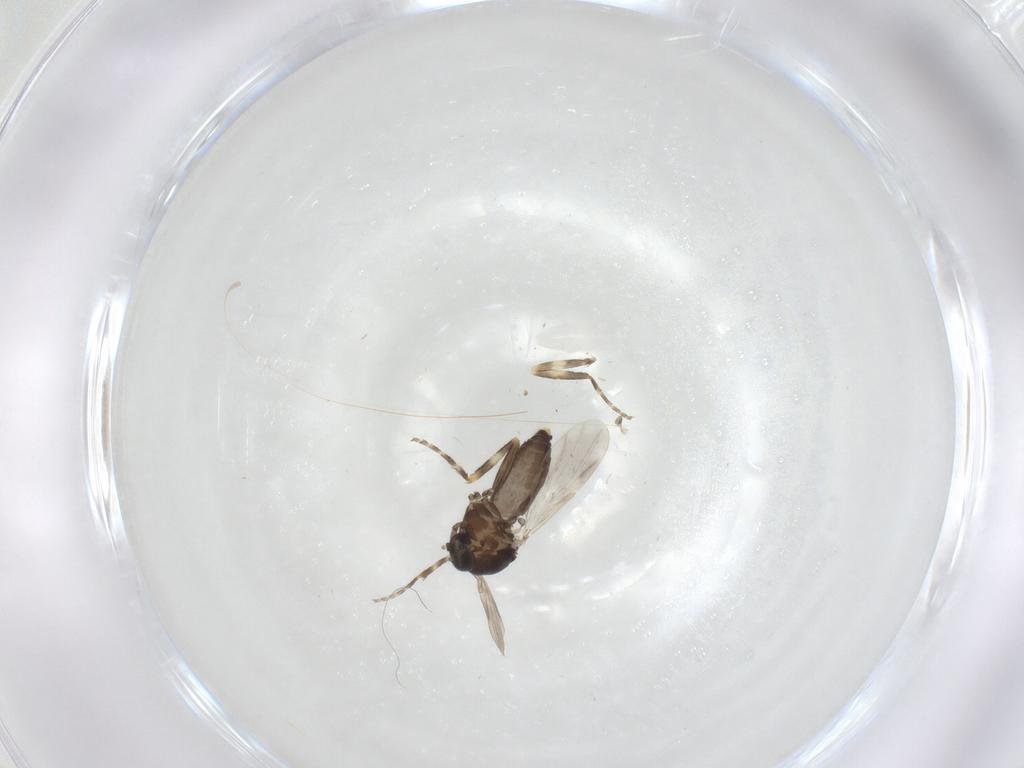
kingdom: Animalia
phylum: Arthropoda
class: Insecta
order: Diptera
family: Ceratopogonidae
